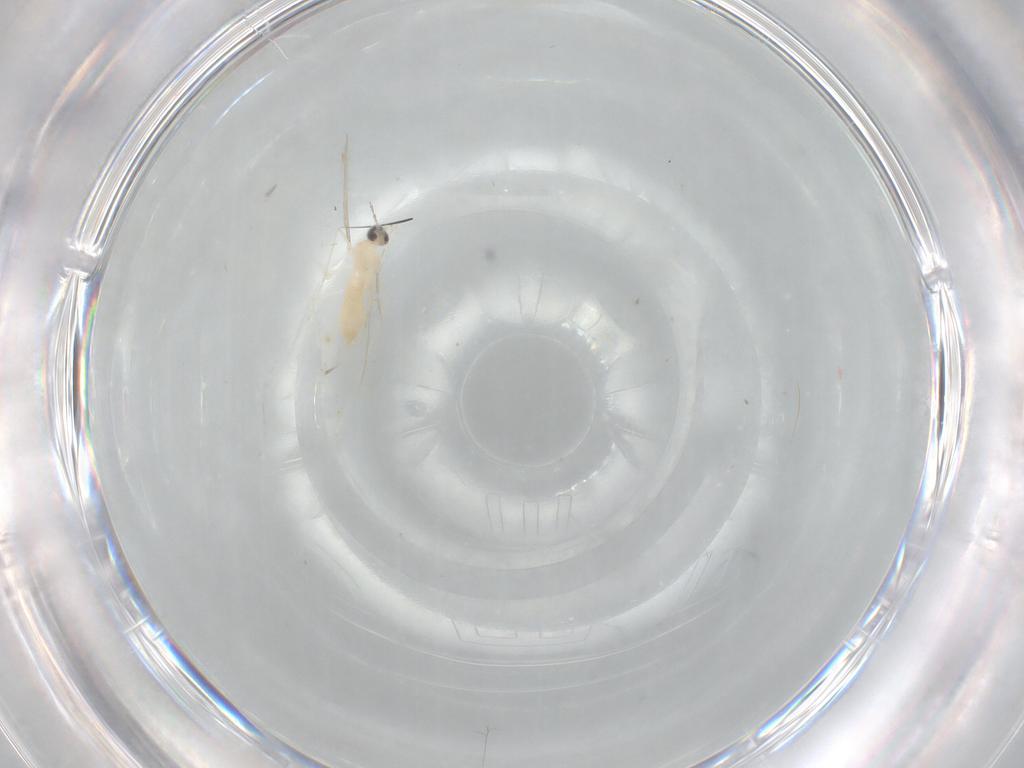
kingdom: Animalia
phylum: Arthropoda
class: Insecta
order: Diptera
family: Cecidomyiidae
